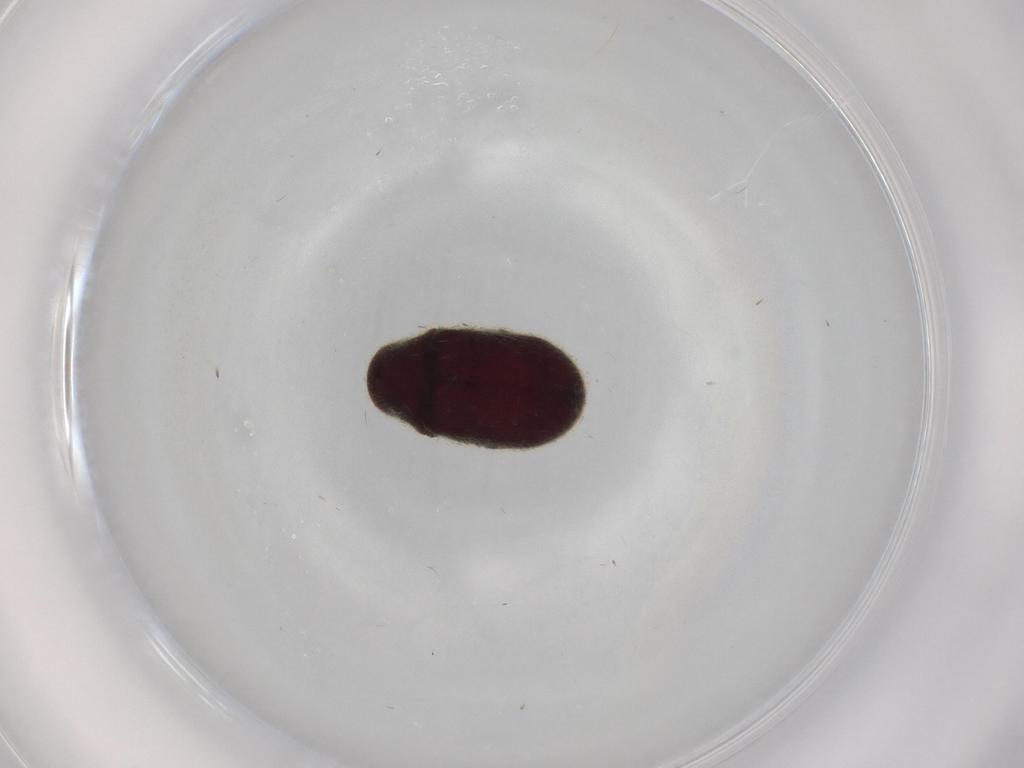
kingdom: Animalia
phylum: Arthropoda
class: Insecta
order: Coleoptera
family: Ptinidae
